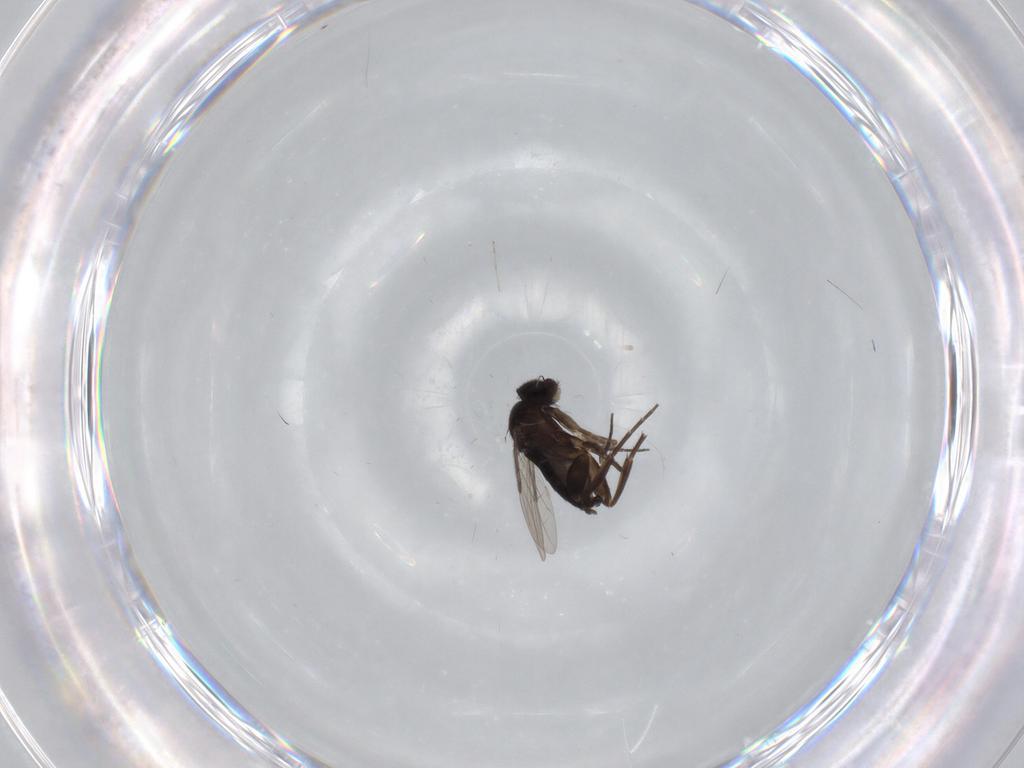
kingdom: Animalia
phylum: Arthropoda
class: Insecta
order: Diptera
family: Phoridae
